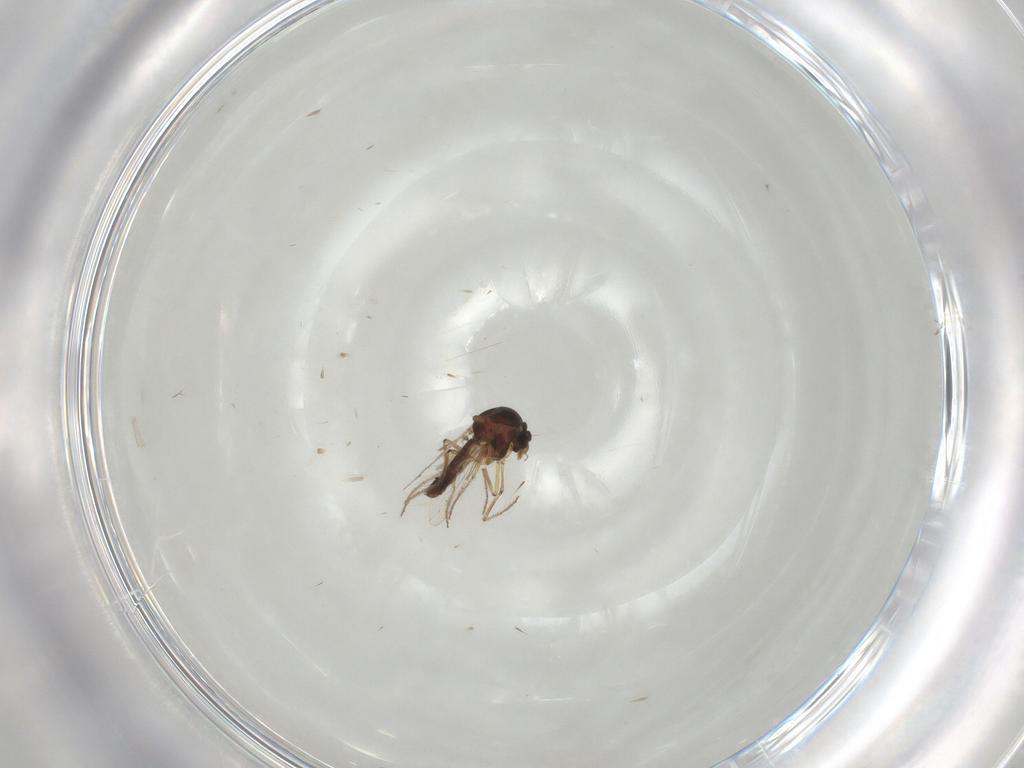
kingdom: Animalia
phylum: Arthropoda
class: Insecta
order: Diptera
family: Ceratopogonidae
